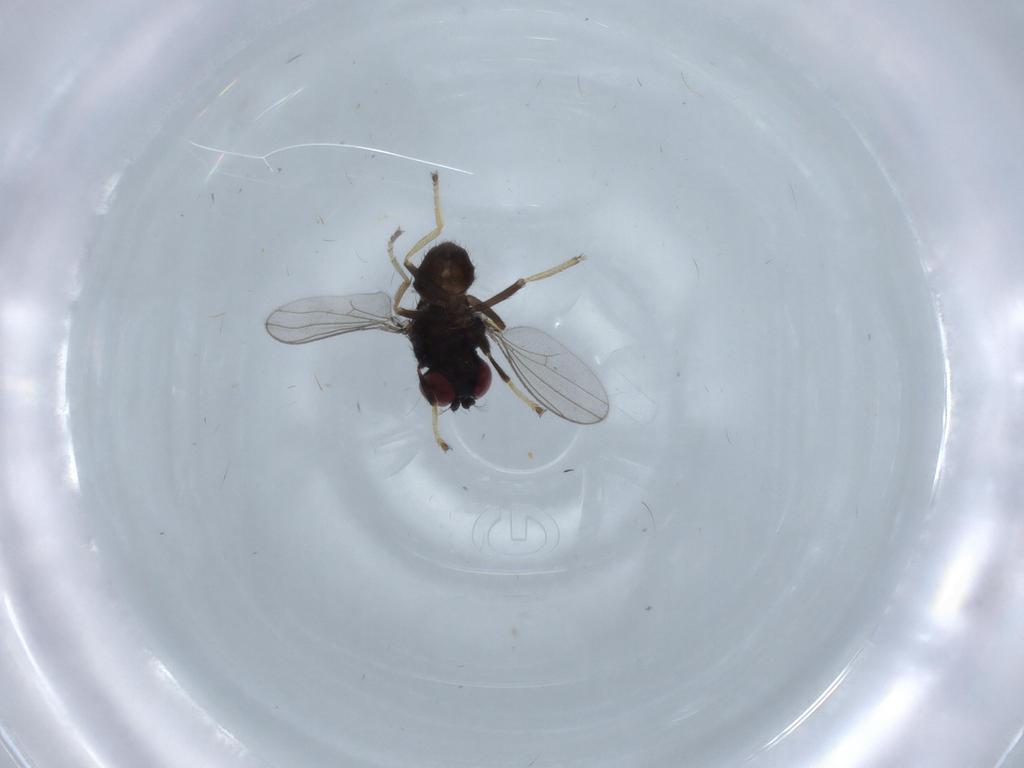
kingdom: Animalia
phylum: Arthropoda
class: Insecta
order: Diptera
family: Ephydridae
